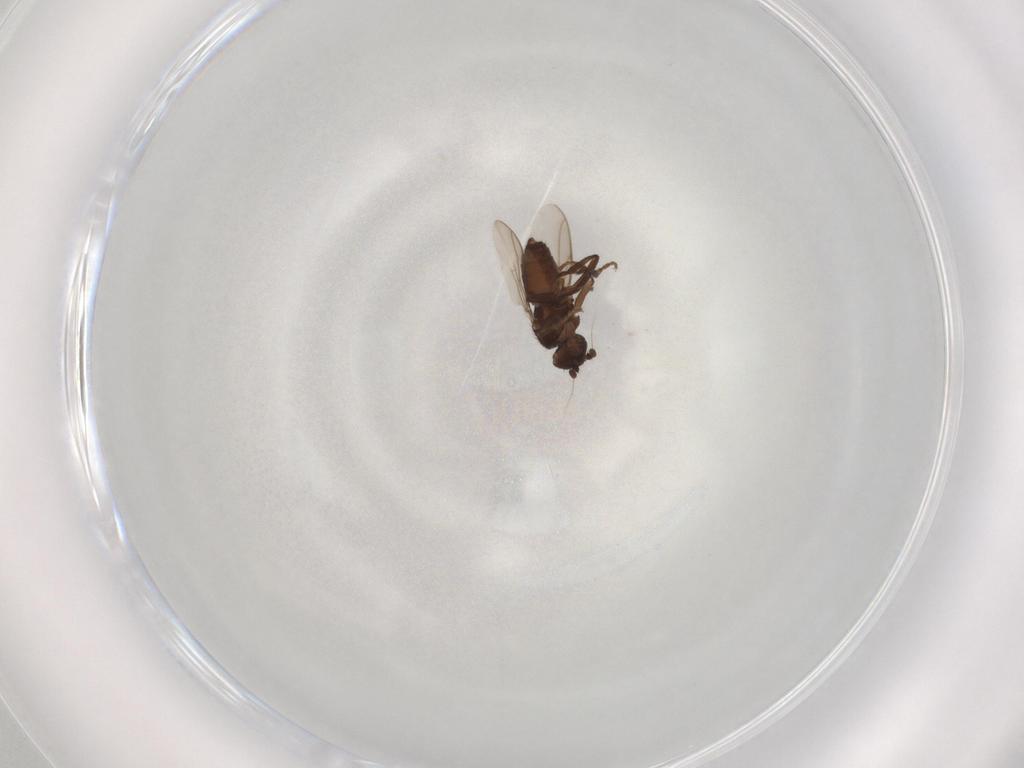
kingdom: Animalia
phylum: Arthropoda
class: Insecta
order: Diptera
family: Sphaeroceridae
